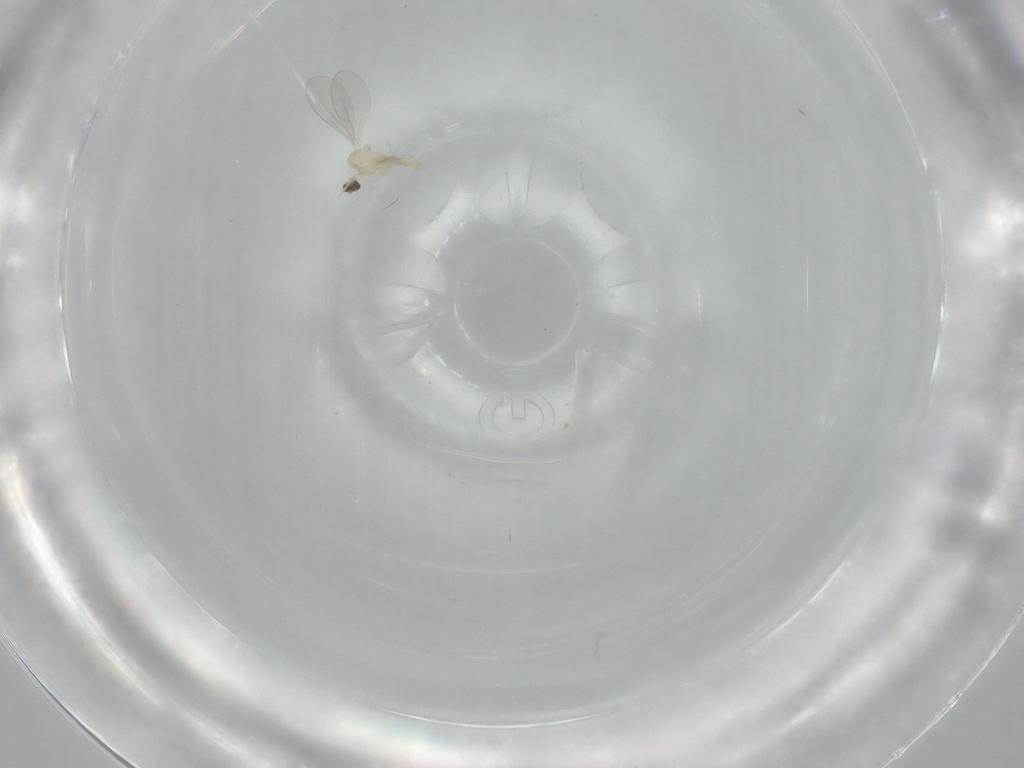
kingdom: Animalia
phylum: Arthropoda
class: Insecta
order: Diptera
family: Cecidomyiidae
